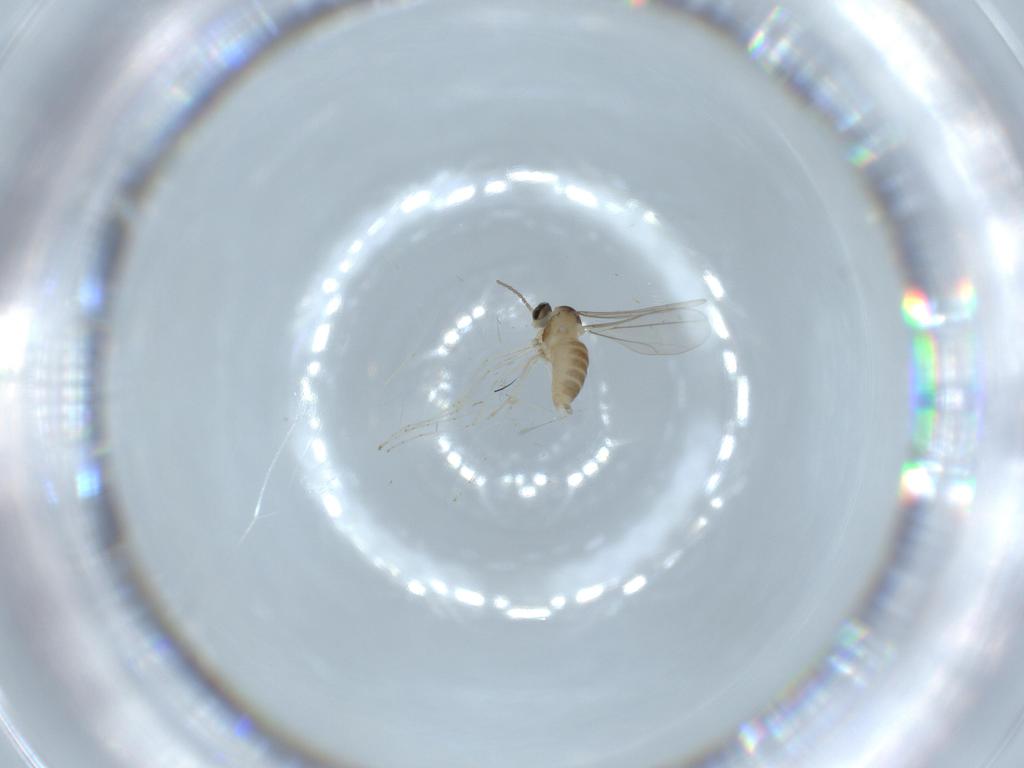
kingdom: Animalia
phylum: Arthropoda
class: Insecta
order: Diptera
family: Cecidomyiidae
